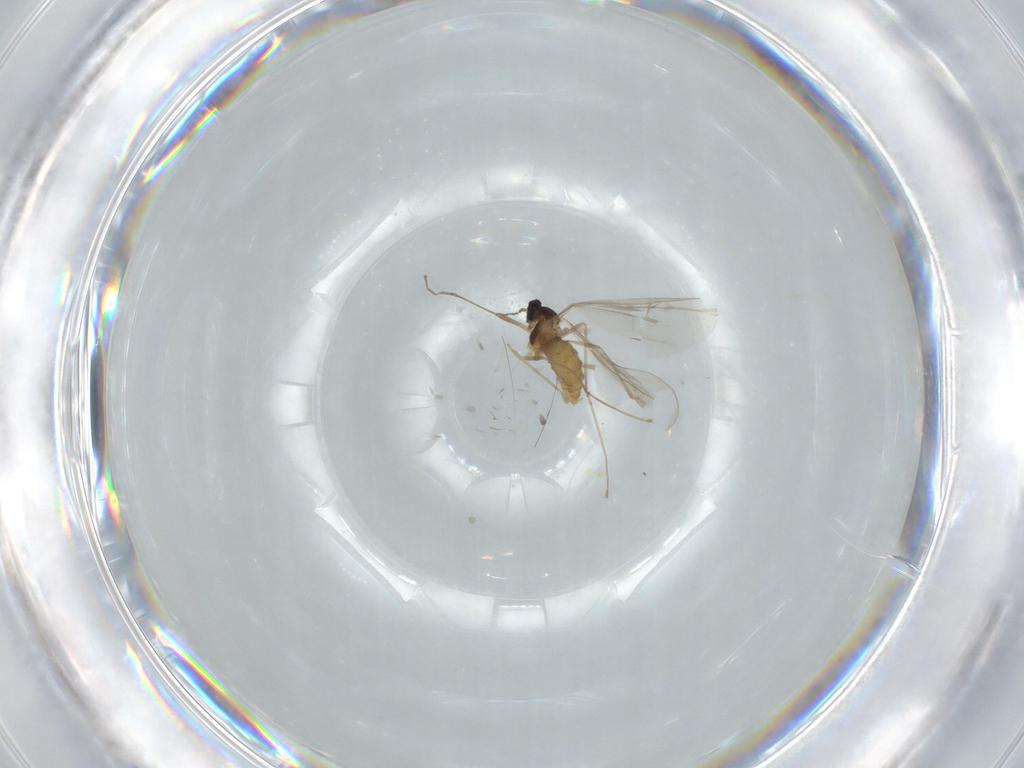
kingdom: Animalia
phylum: Arthropoda
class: Insecta
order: Diptera
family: Cecidomyiidae
